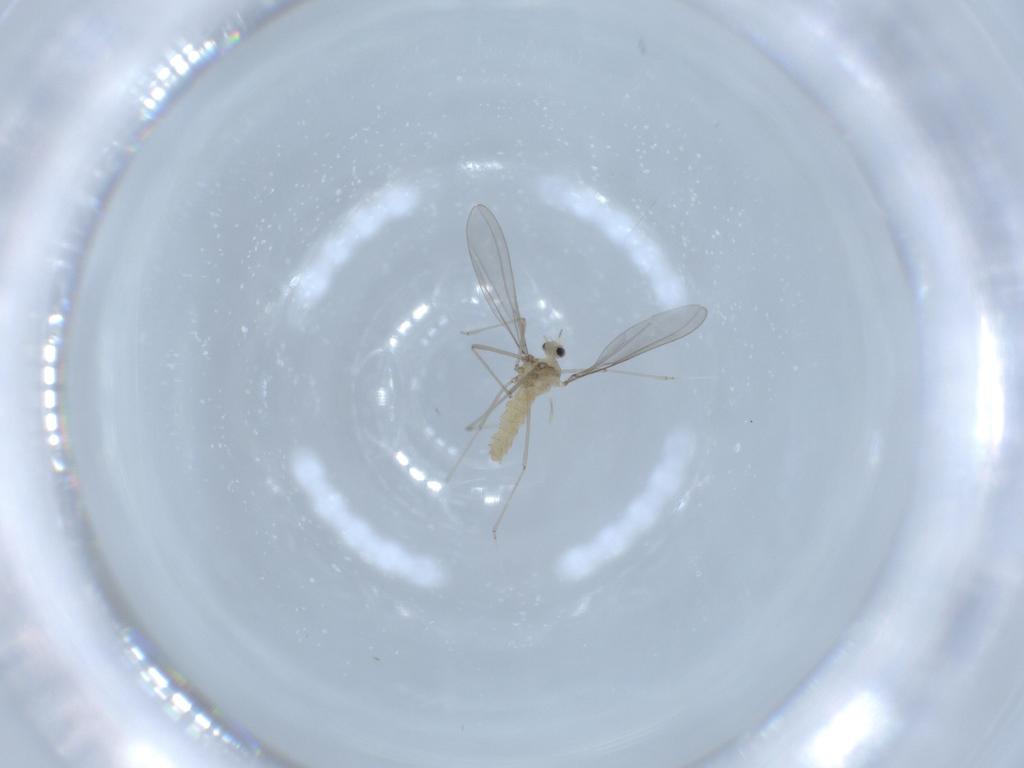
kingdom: Animalia
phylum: Arthropoda
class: Insecta
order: Diptera
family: Cecidomyiidae
